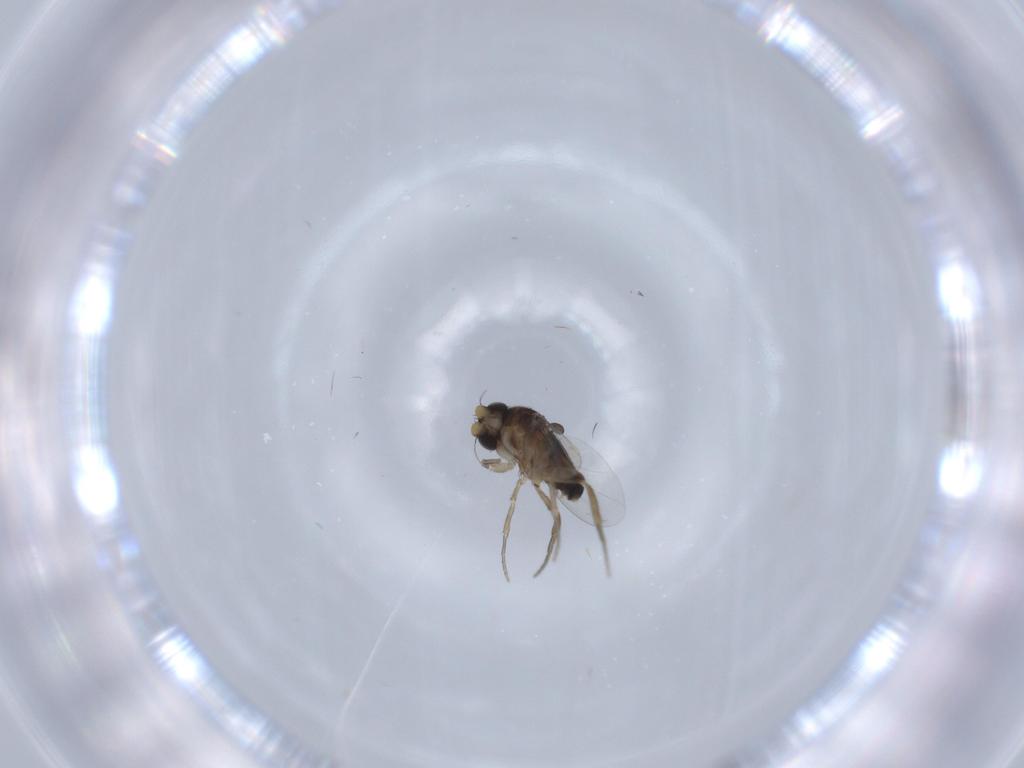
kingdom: Animalia
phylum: Arthropoda
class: Insecta
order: Diptera
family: Phoridae
